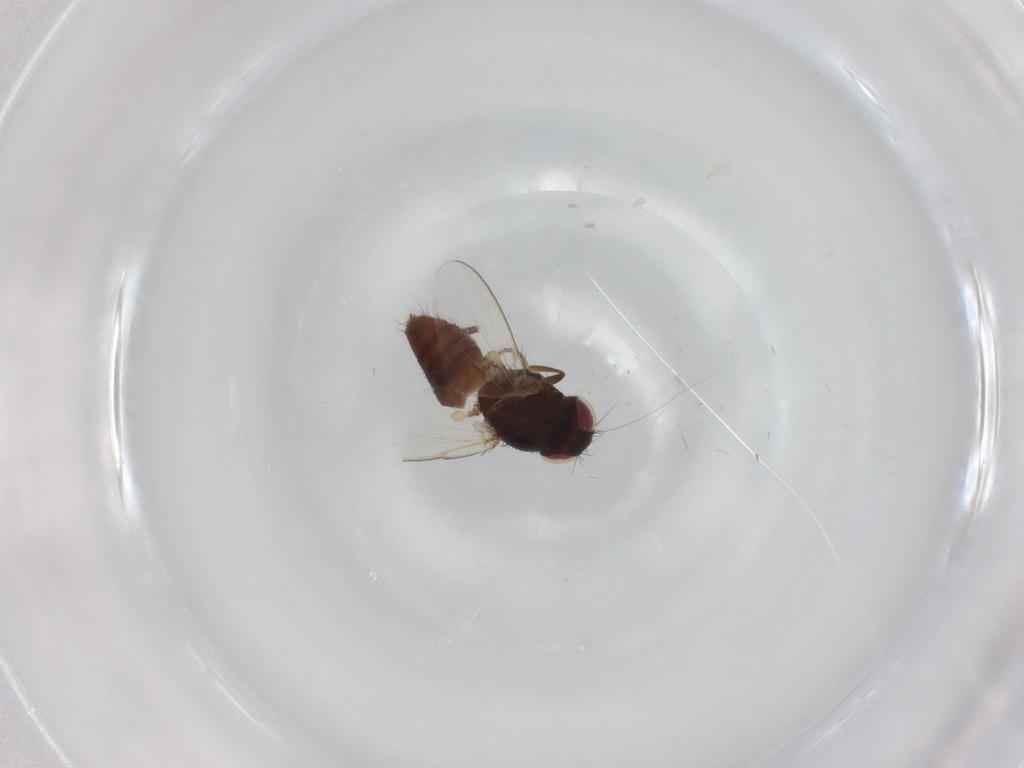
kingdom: Animalia
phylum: Arthropoda
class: Insecta
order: Diptera
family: Milichiidae
